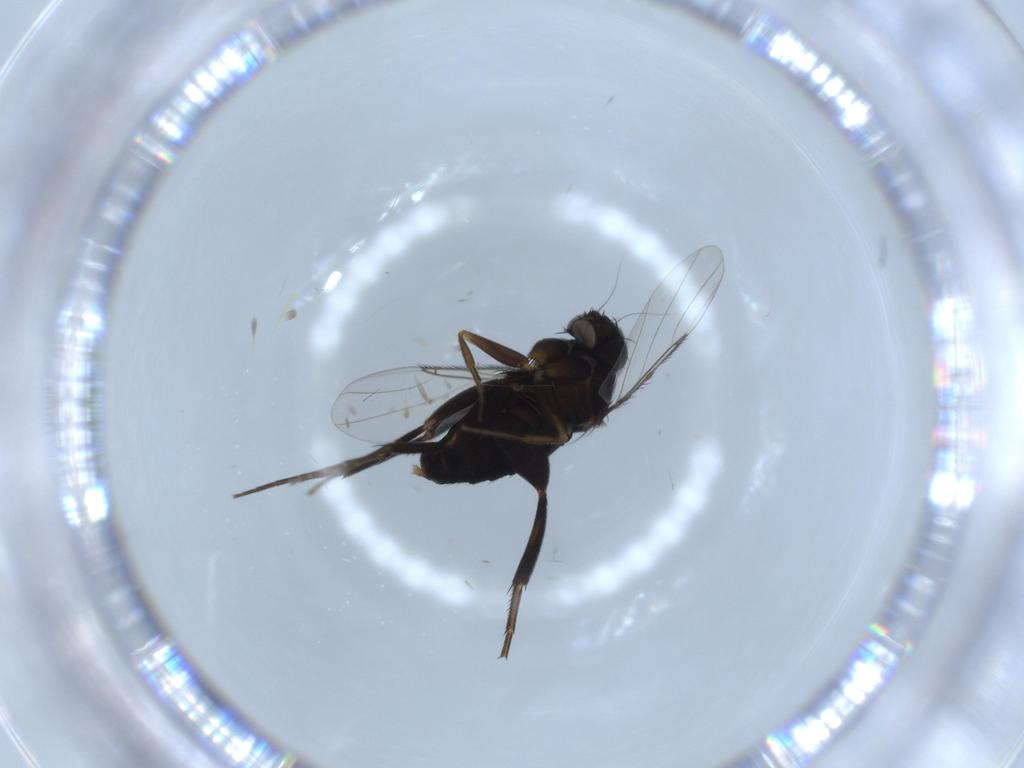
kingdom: Animalia
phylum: Arthropoda
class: Insecta
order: Diptera
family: Phoridae
